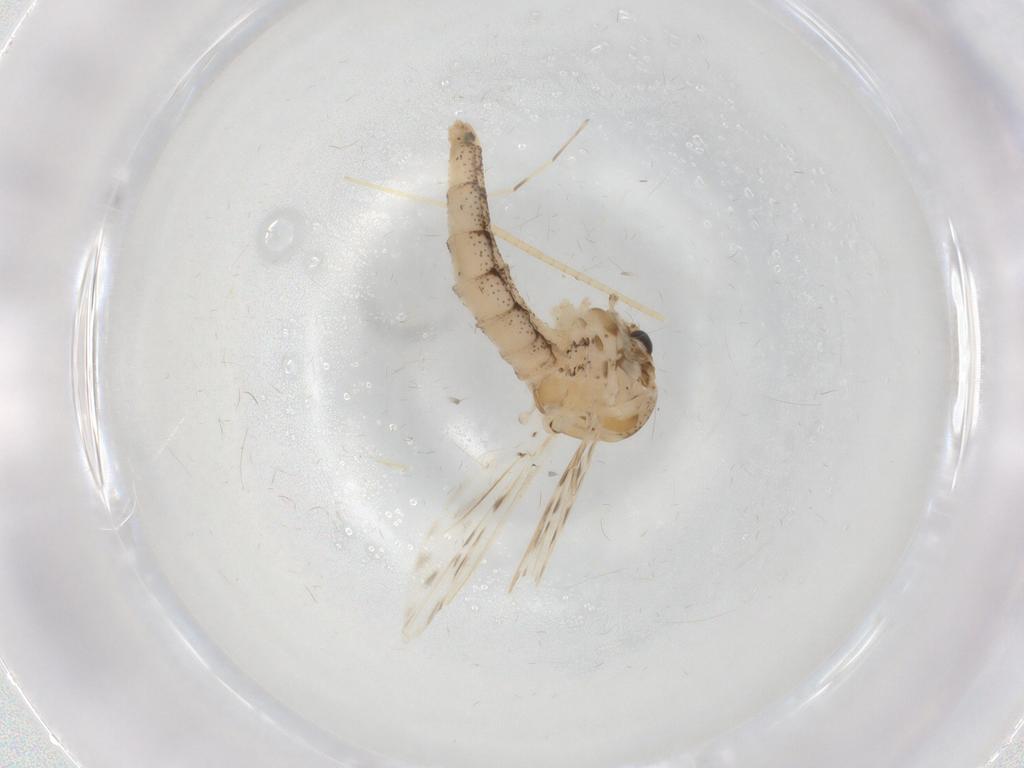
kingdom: Animalia
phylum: Arthropoda
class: Insecta
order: Diptera
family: Chaoboridae
